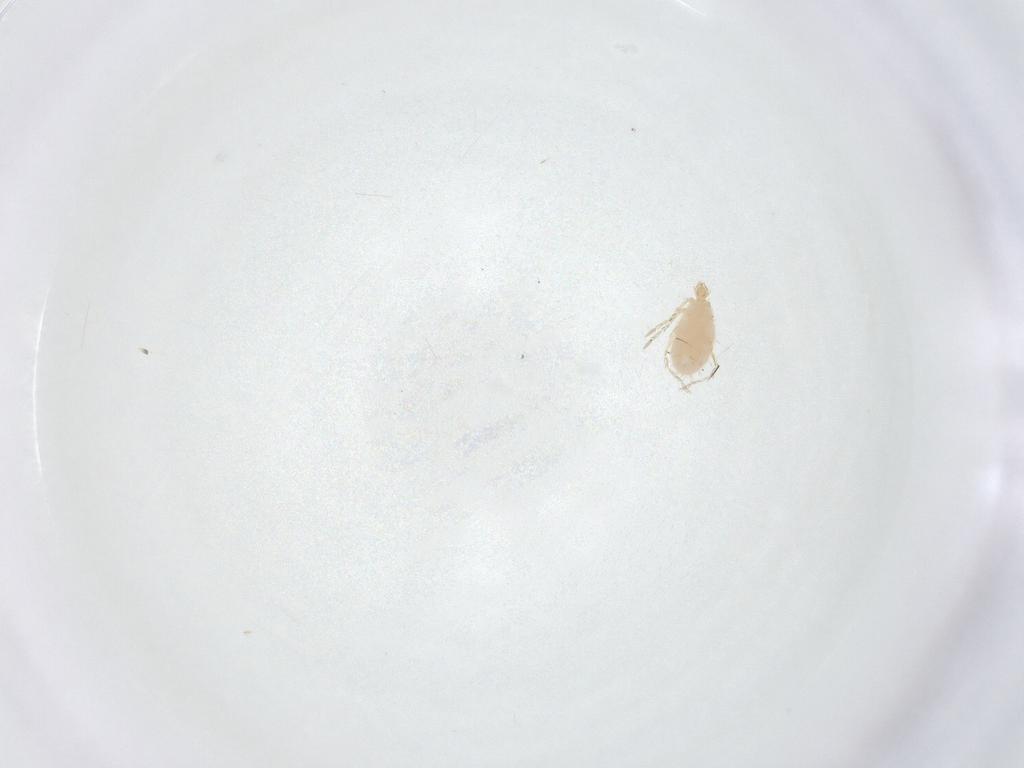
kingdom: Animalia
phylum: Arthropoda
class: Arachnida
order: Trombidiformes
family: Erythraeidae
